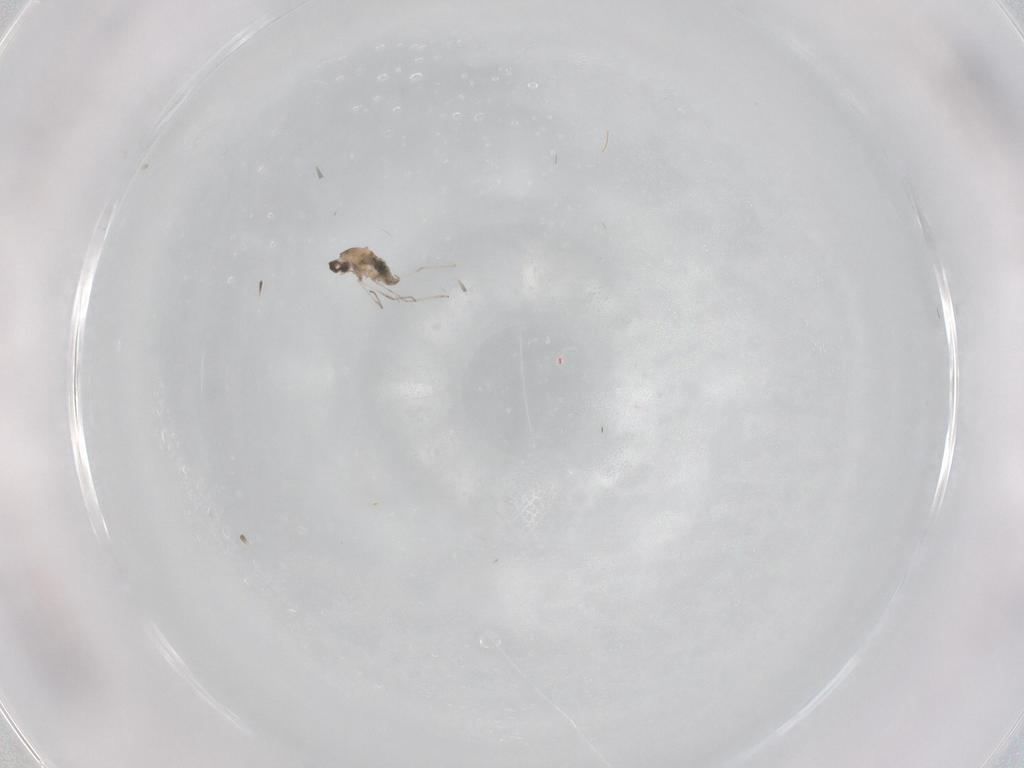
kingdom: Animalia
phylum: Arthropoda
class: Insecta
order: Diptera
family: Cecidomyiidae
